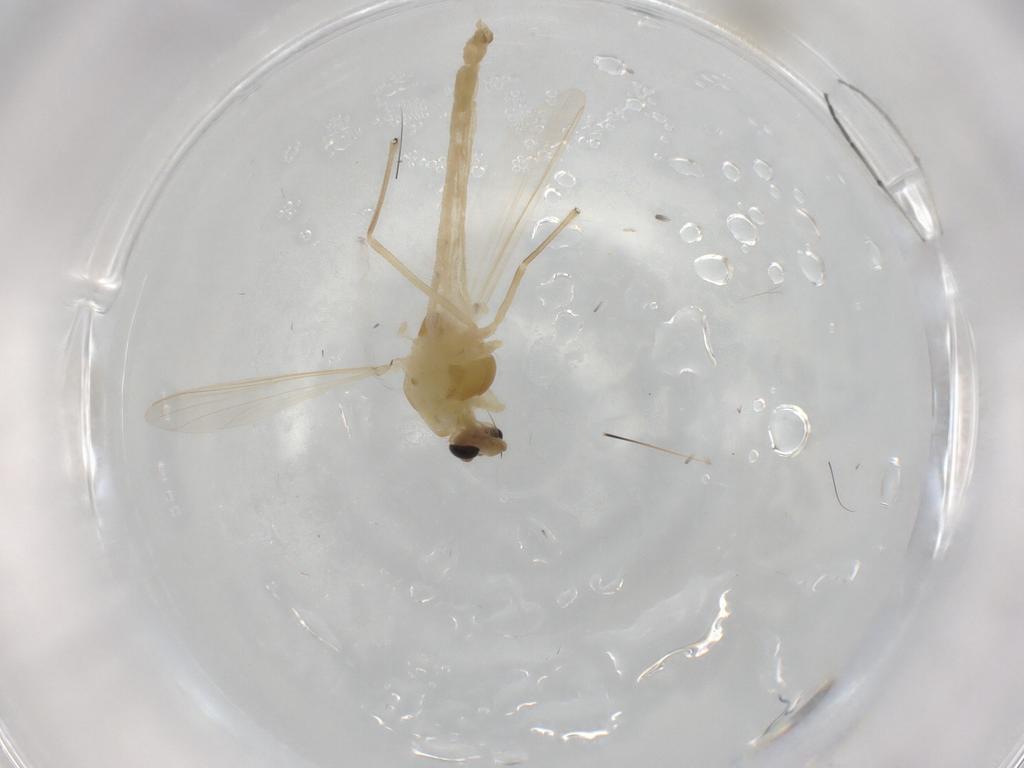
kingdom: Animalia
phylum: Arthropoda
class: Insecta
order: Diptera
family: Chironomidae
